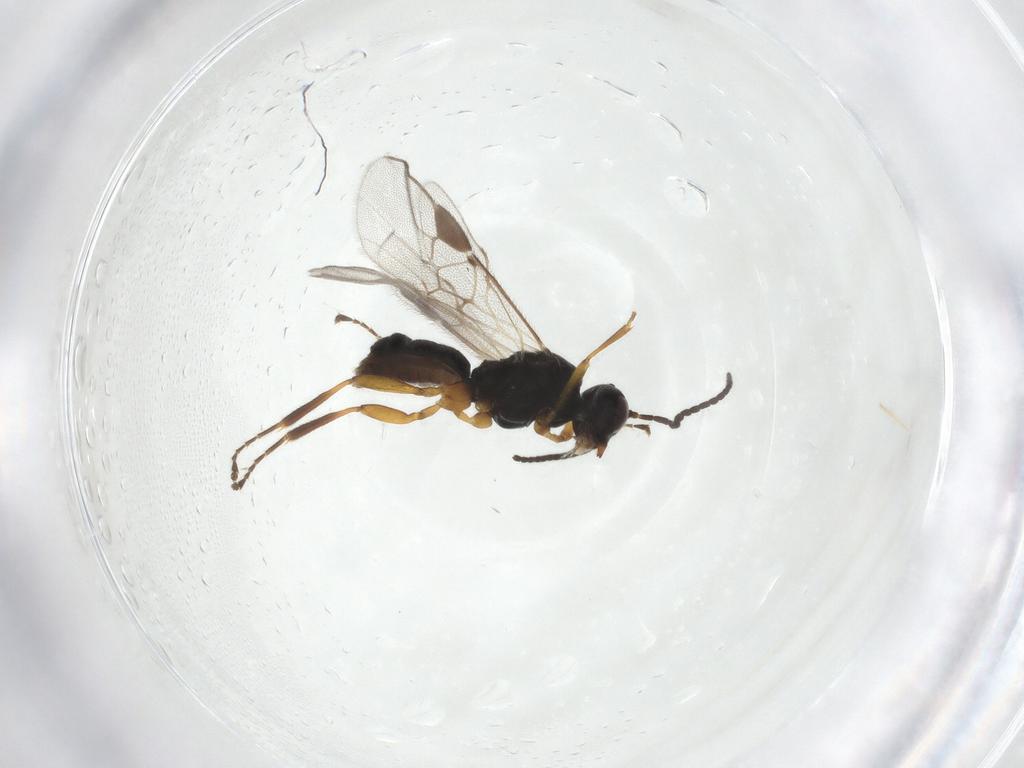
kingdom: Animalia
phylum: Arthropoda
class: Insecta
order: Hymenoptera
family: Braconidae
